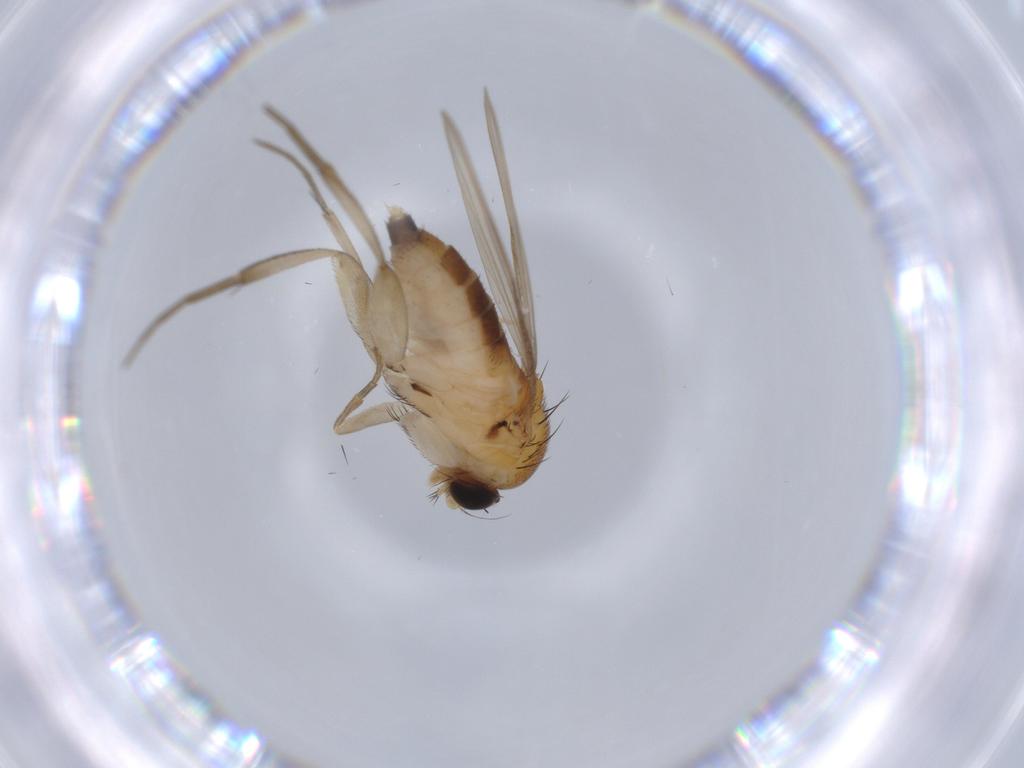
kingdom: Animalia
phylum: Arthropoda
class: Insecta
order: Diptera
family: Phoridae
